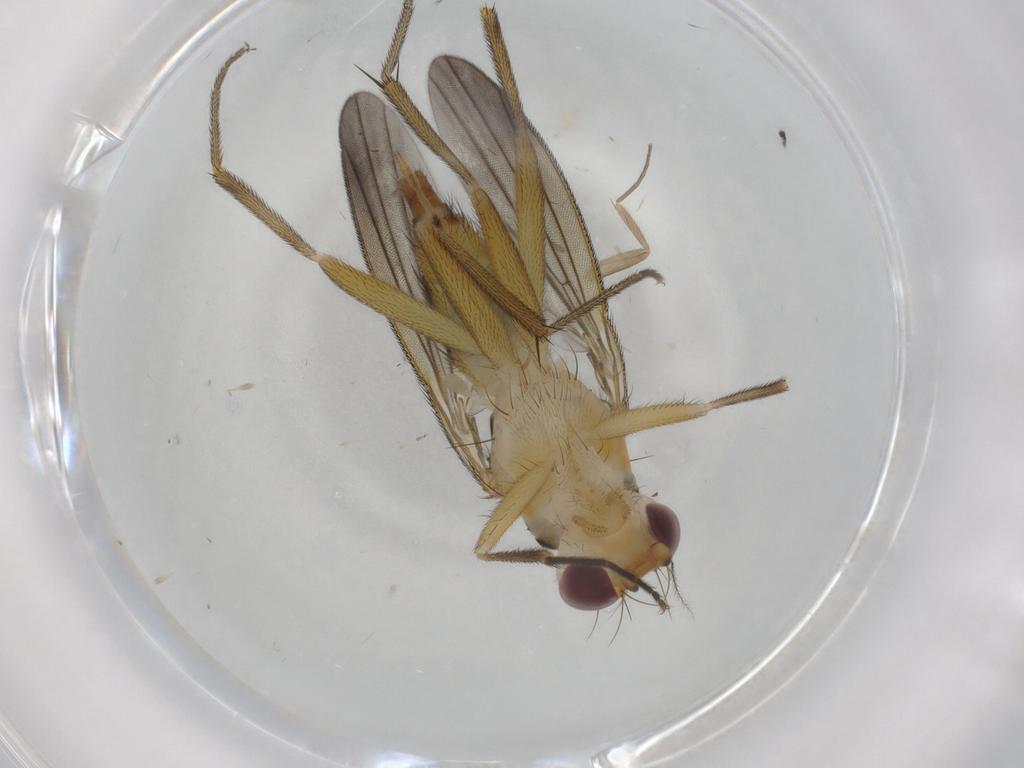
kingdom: Animalia
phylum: Arthropoda
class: Insecta
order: Diptera
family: Clusiidae
